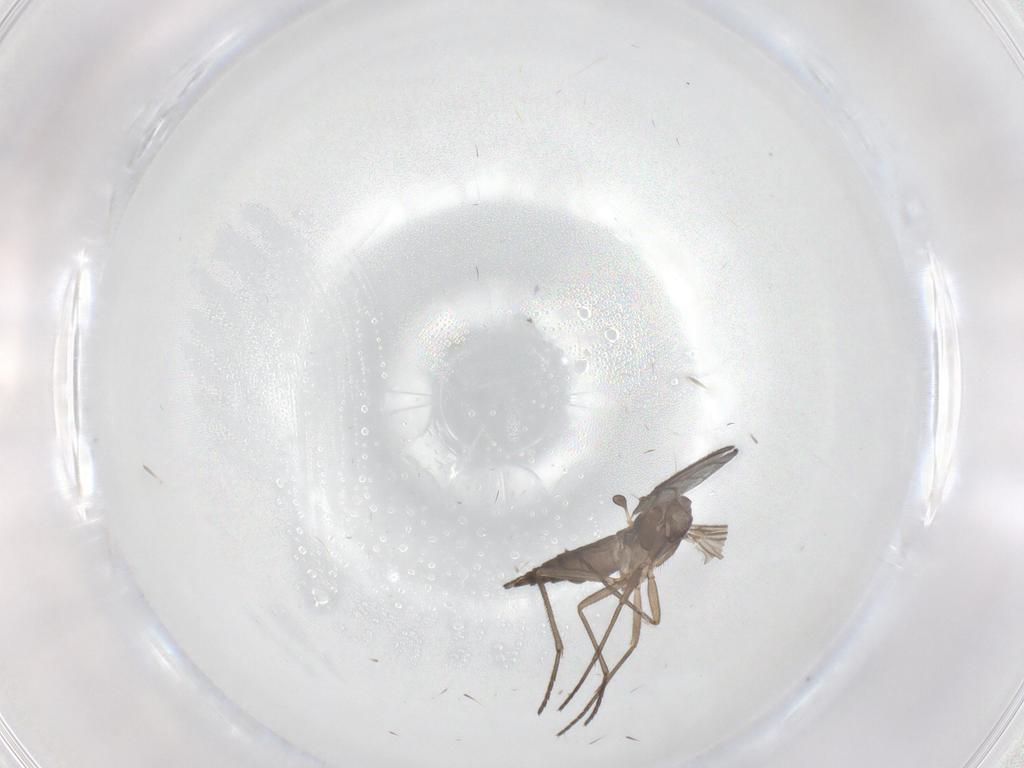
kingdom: Animalia
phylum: Arthropoda
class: Insecta
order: Diptera
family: Sciaridae
